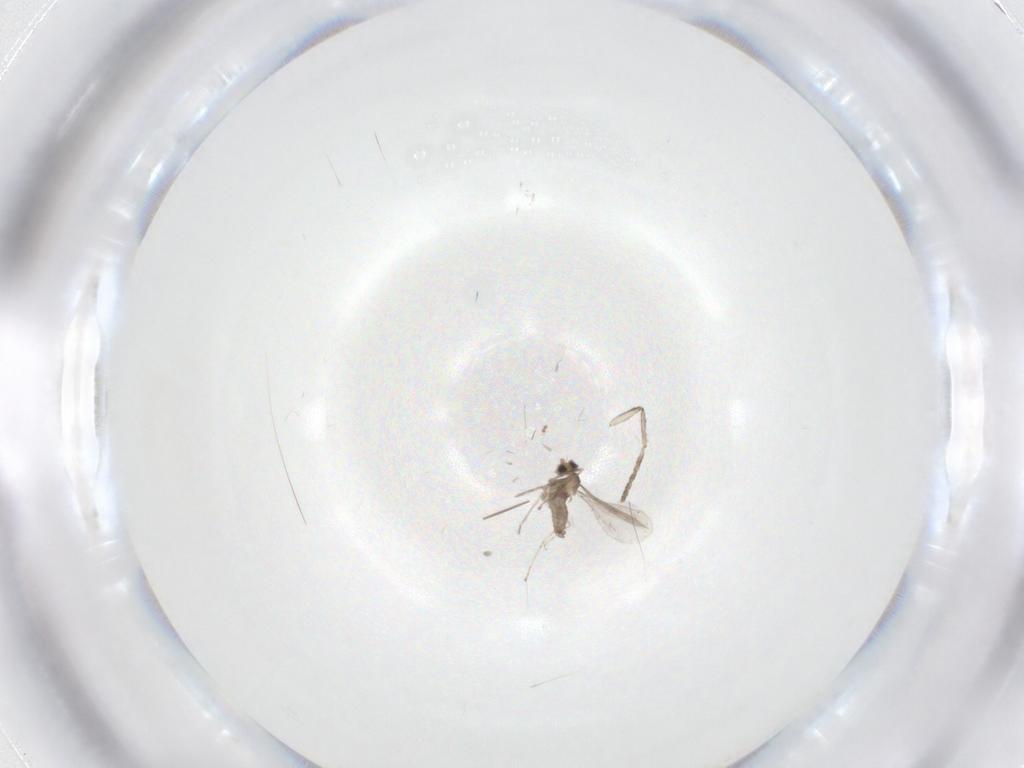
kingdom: Animalia
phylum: Arthropoda
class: Insecta
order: Diptera
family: Cecidomyiidae
